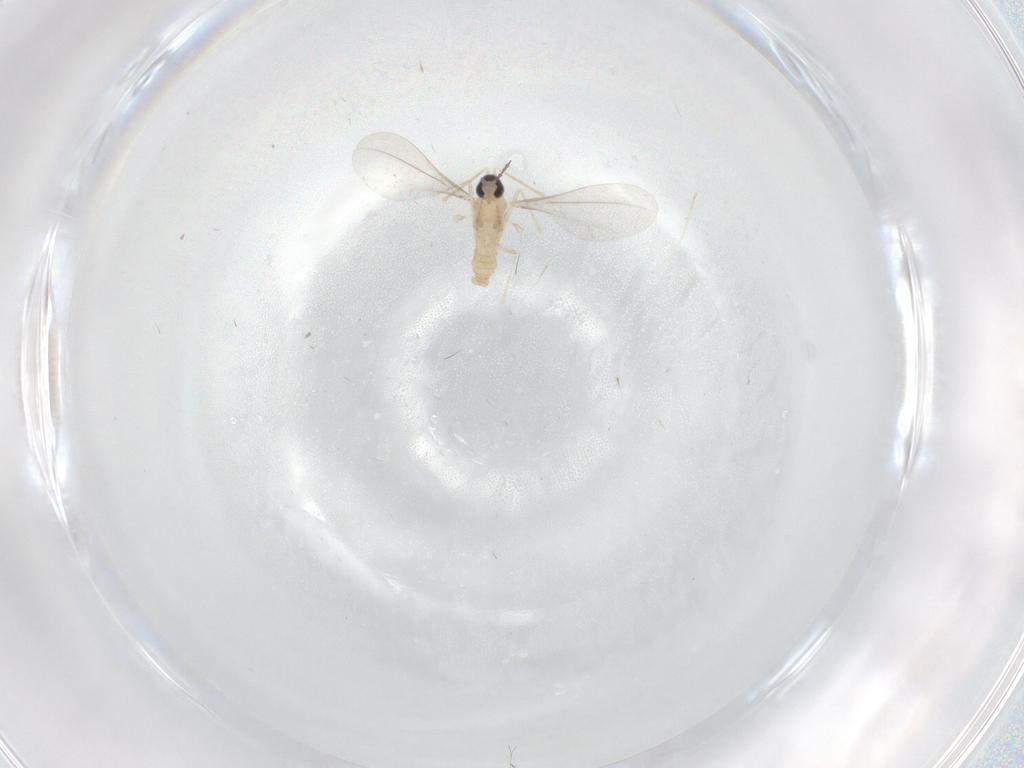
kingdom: Animalia
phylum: Arthropoda
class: Insecta
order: Diptera
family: Cecidomyiidae
